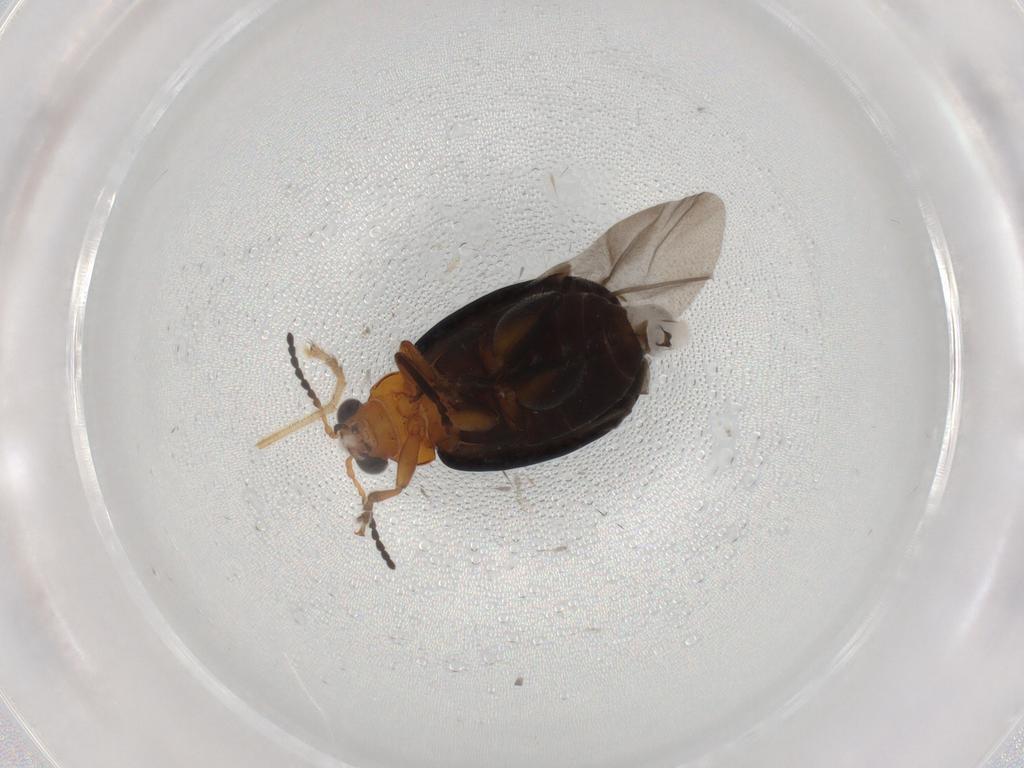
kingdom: Animalia
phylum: Arthropoda
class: Insecta
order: Coleoptera
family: Chrysomelidae
